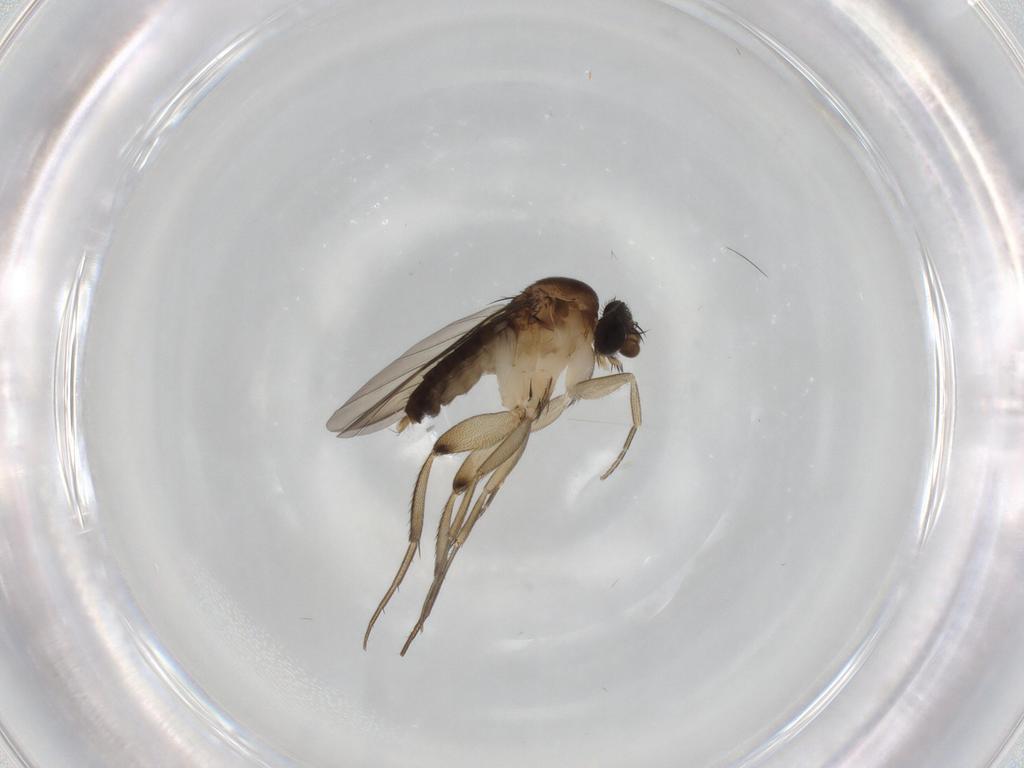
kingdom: Animalia
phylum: Arthropoda
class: Insecta
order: Diptera
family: Phoridae
